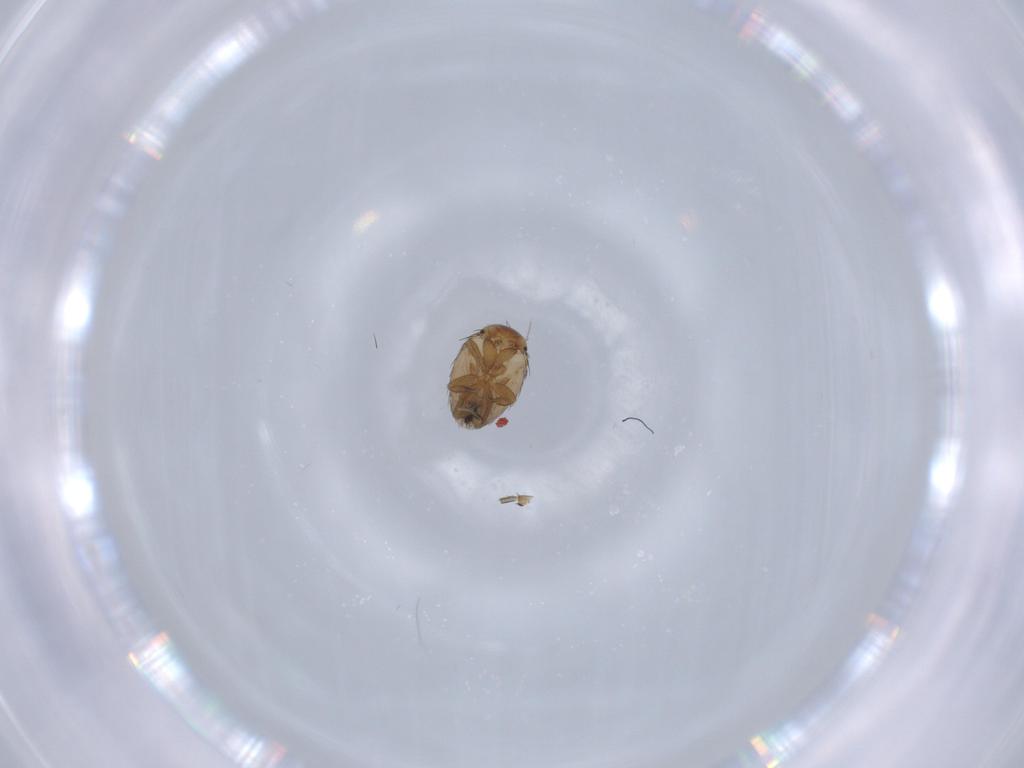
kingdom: Animalia
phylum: Arthropoda
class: Insecta
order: Diptera
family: Phoridae
